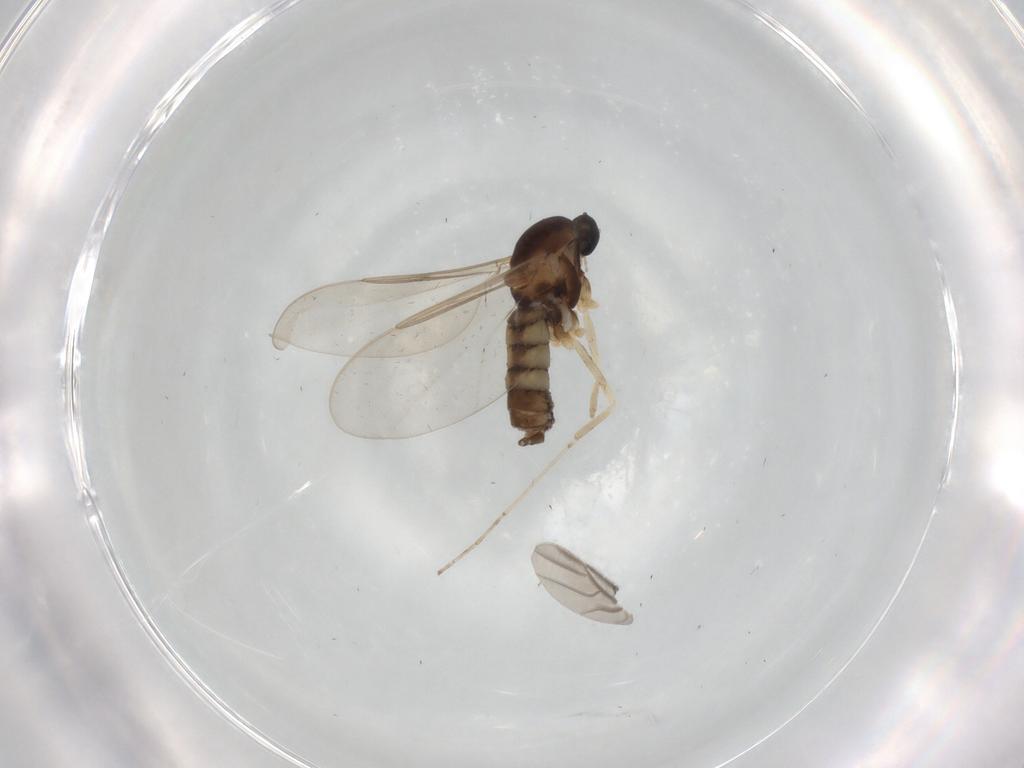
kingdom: Animalia
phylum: Arthropoda
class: Insecta
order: Diptera
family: Cecidomyiidae
